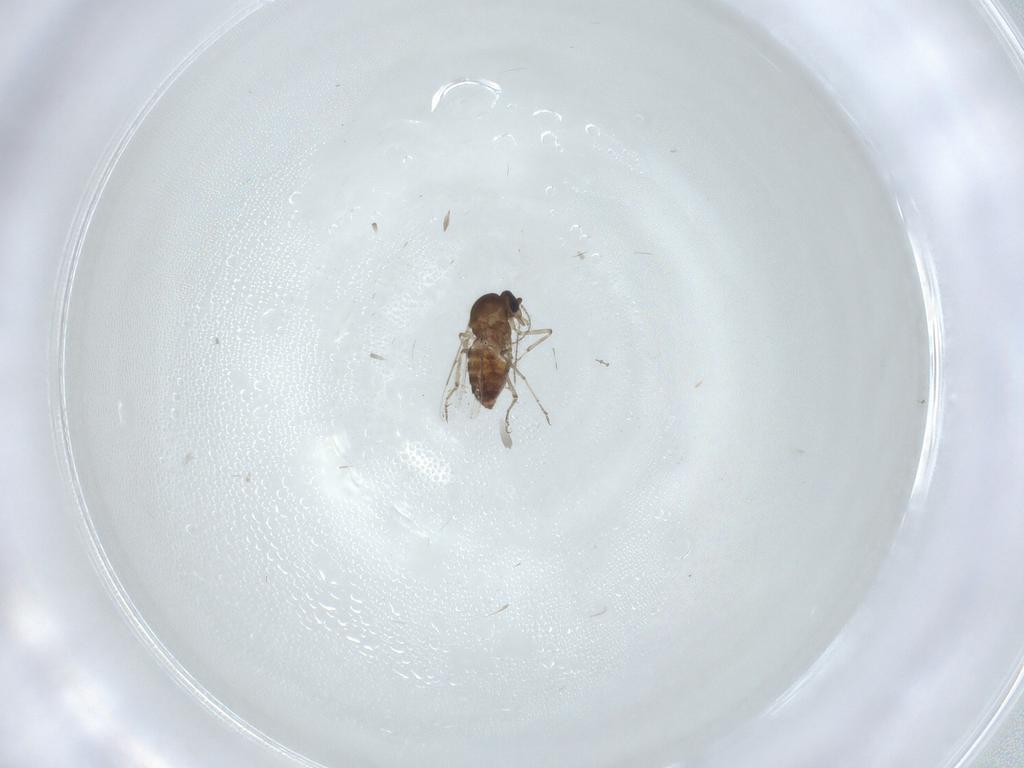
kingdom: Animalia
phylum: Arthropoda
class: Insecta
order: Diptera
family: Ceratopogonidae
